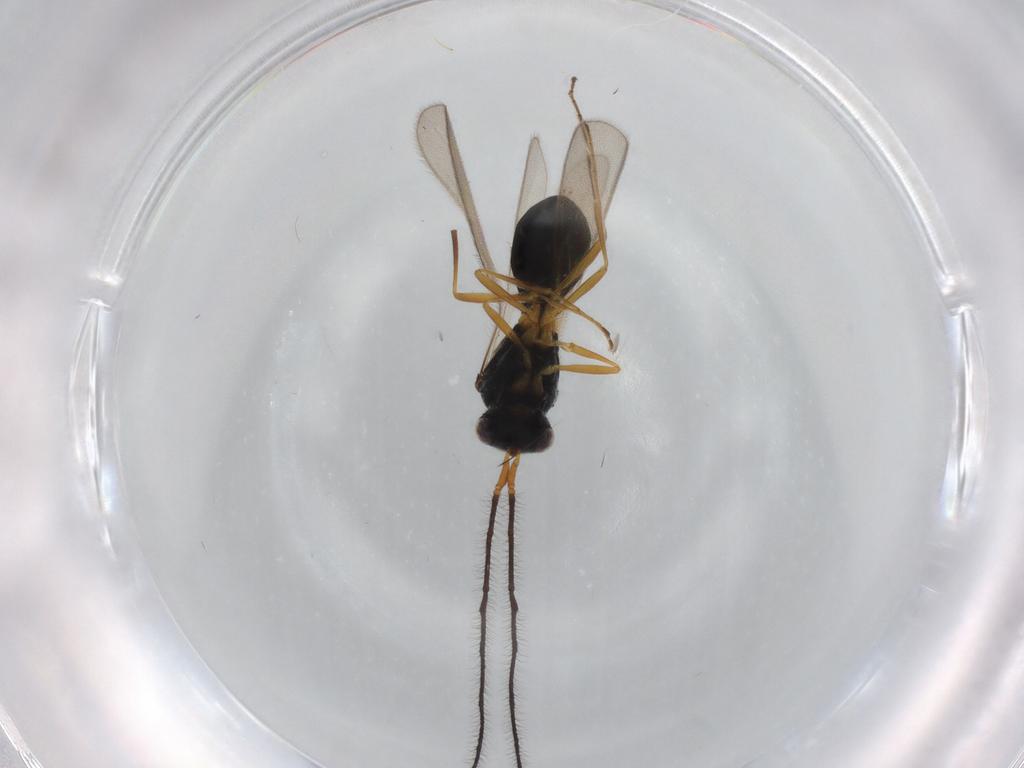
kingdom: Animalia
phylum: Arthropoda
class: Insecta
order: Hymenoptera
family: Scelionidae
